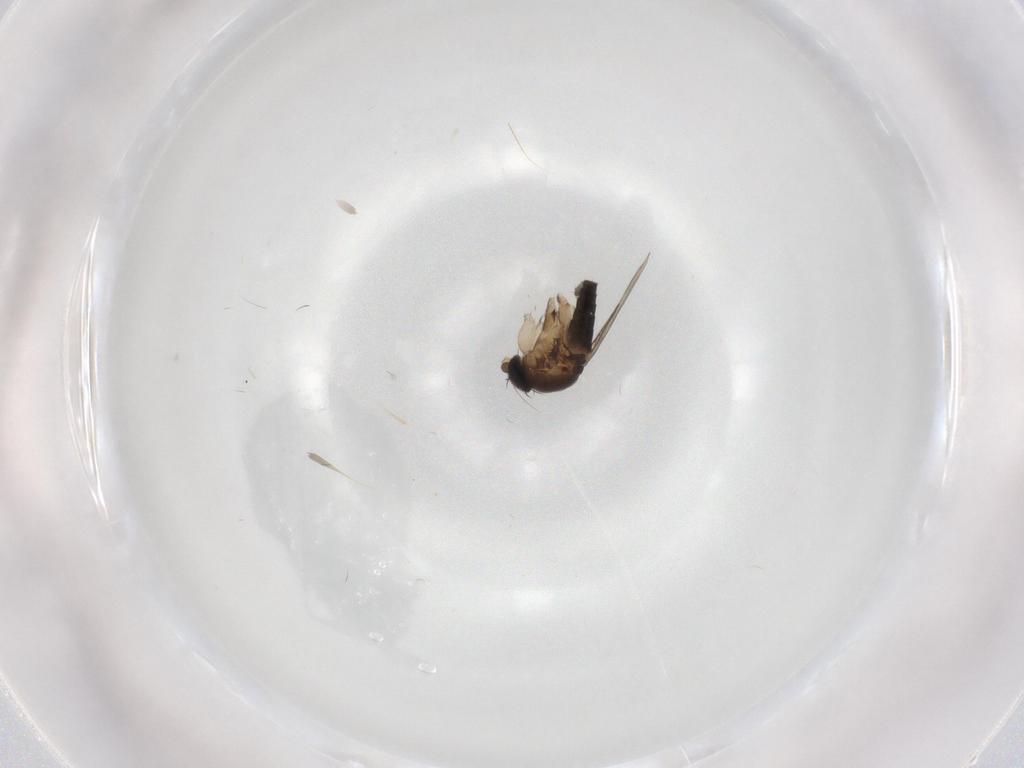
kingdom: Animalia
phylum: Arthropoda
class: Insecta
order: Diptera
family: Phoridae
